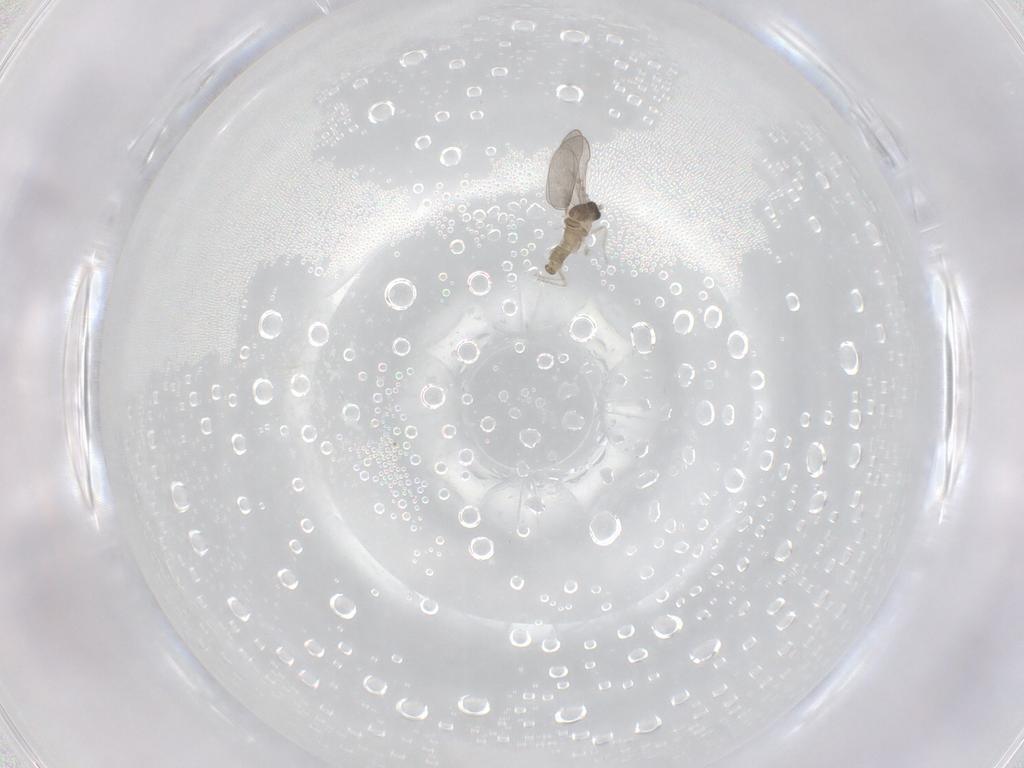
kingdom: Animalia
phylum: Arthropoda
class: Insecta
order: Diptera
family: Cecidomyiidae
